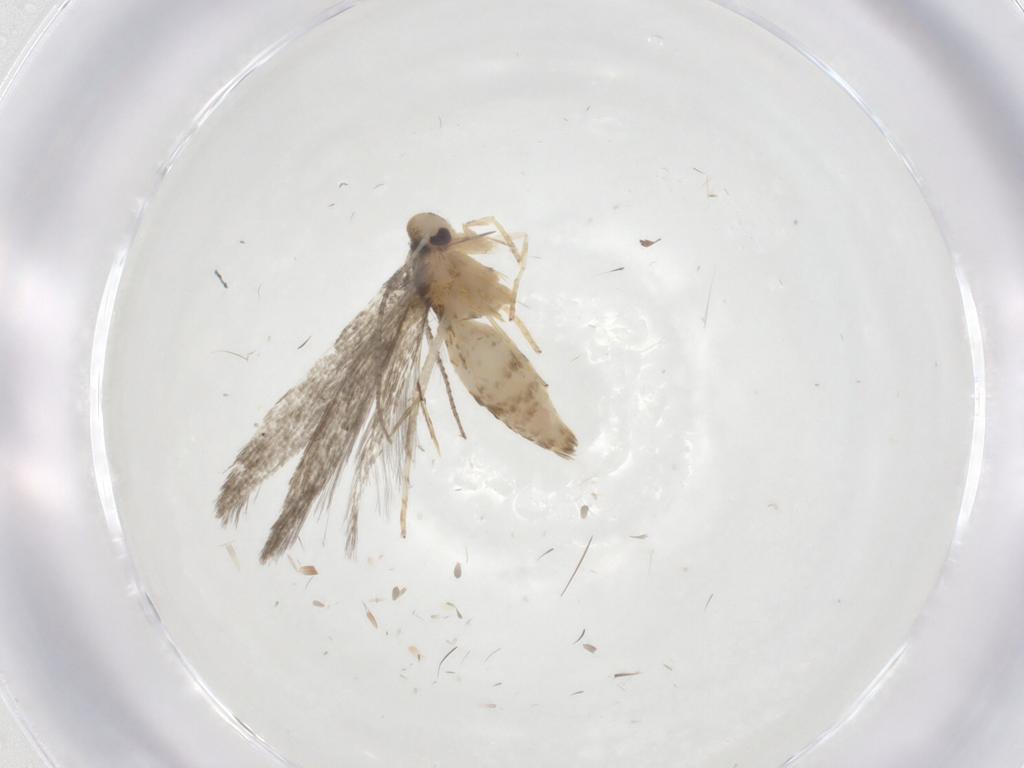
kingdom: Animalia
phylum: Arthropoda
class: Insecta
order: Lepidoptera
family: Stathmopodidae
